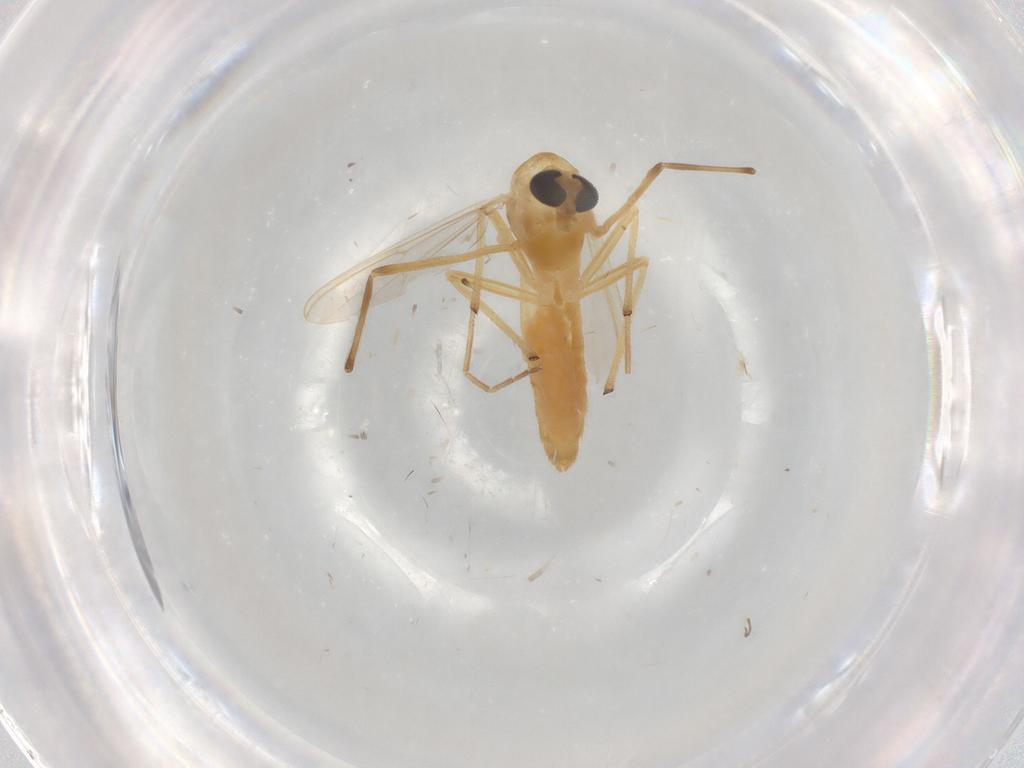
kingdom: Animalia
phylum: Arthropoda
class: Insecta
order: Diptera
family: Chironomidae
